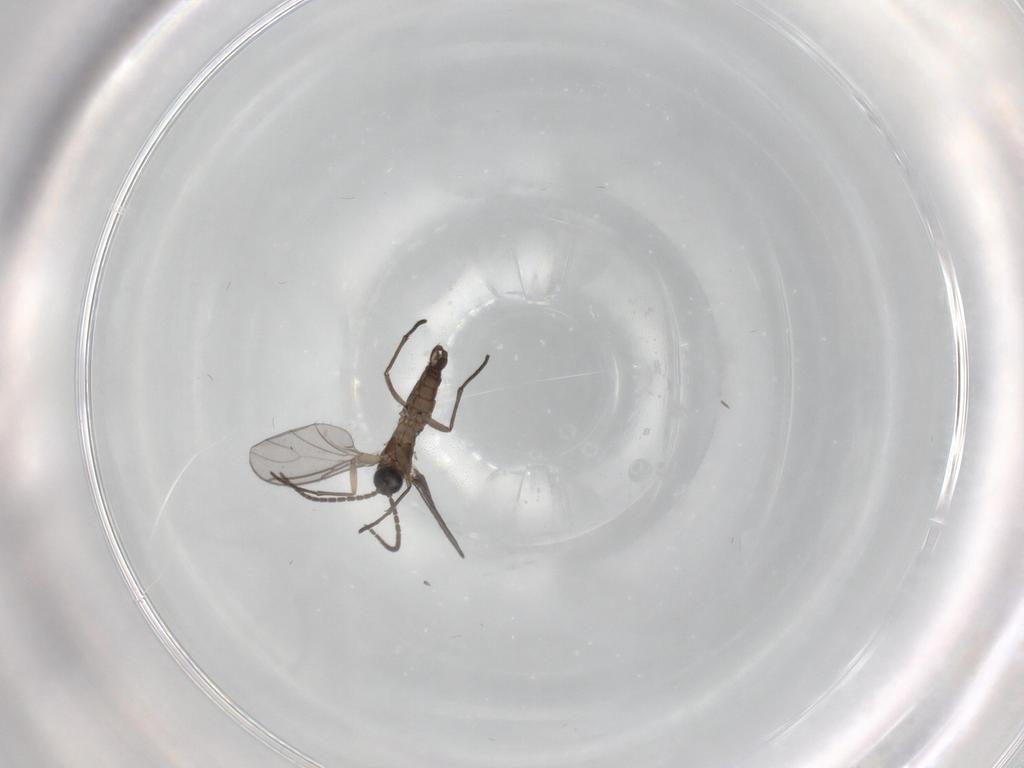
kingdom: Animalia
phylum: Arthropoda
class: Insecta
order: Diptera
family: Sciaridae
